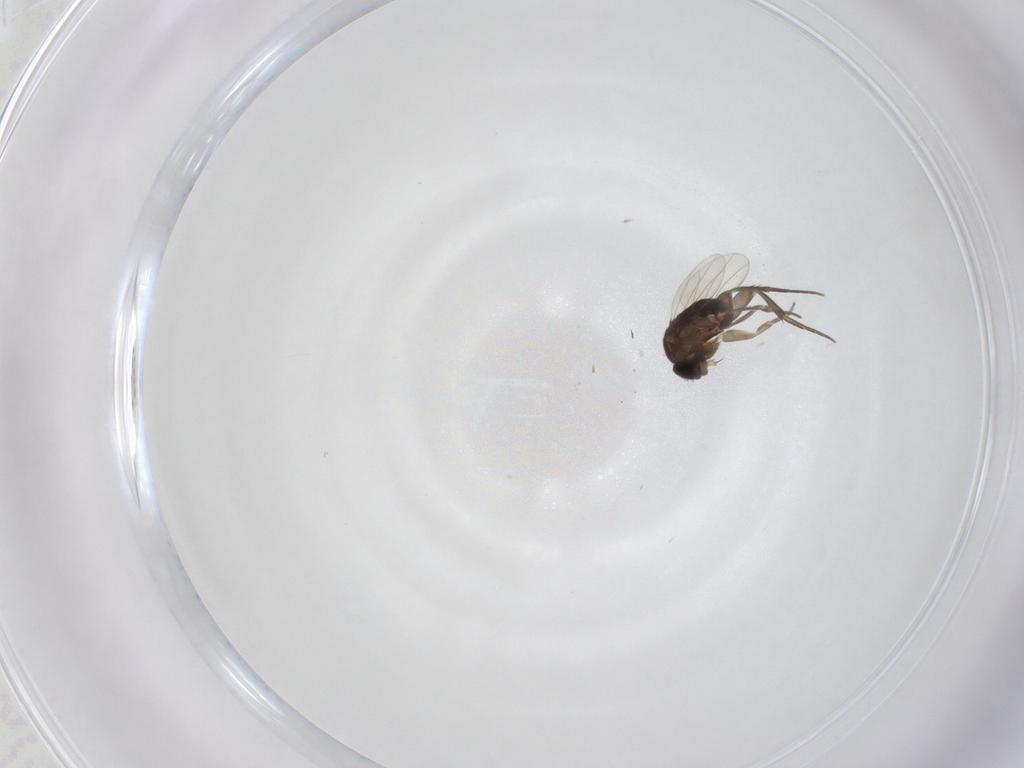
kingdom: Animalia
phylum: Arthropoda
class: Insecta
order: Diptera
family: Phoridae
